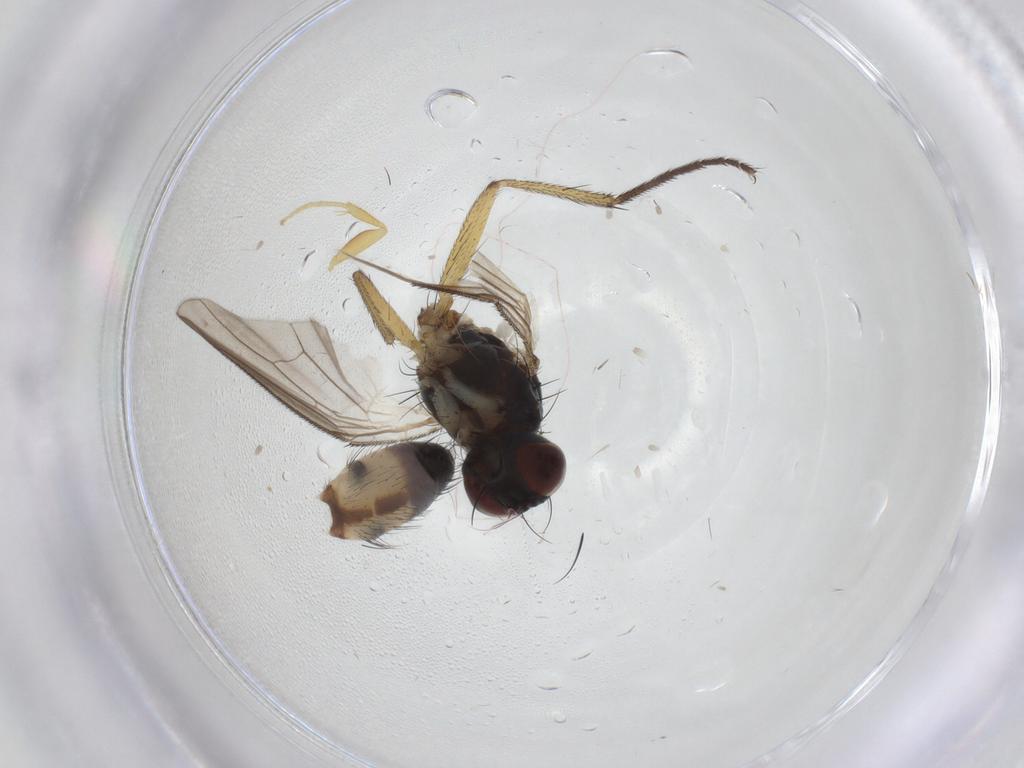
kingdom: Animalia
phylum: Arthropoda
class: Insecta
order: Diptera
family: Muscidae
